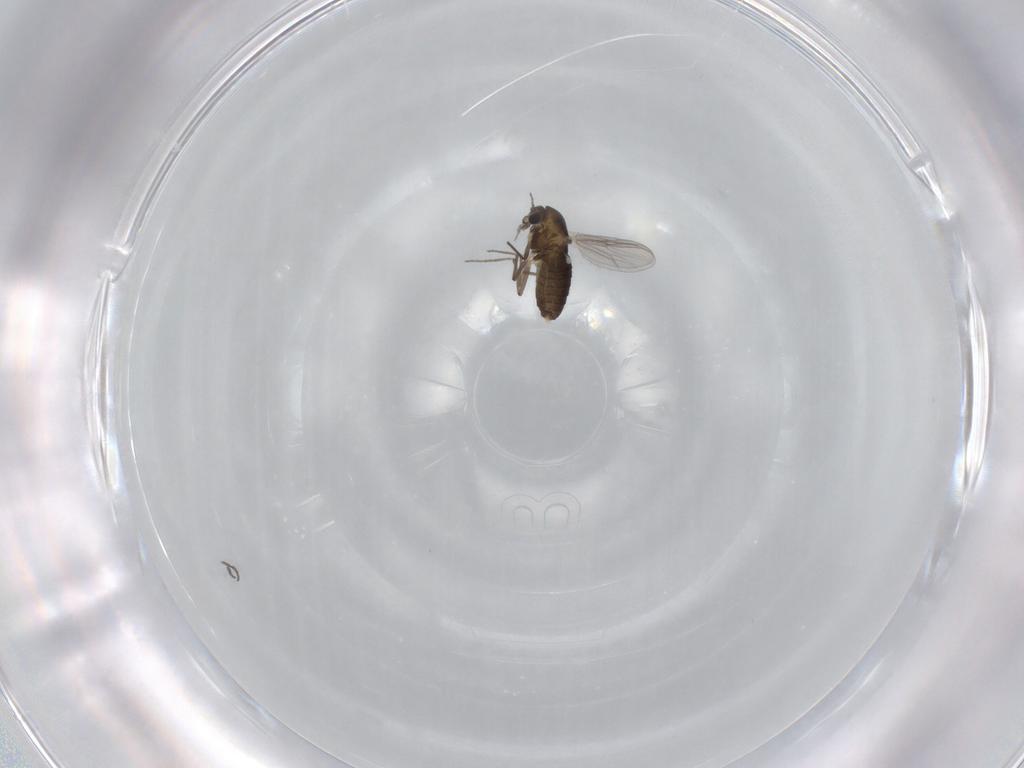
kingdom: Animalia
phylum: Arthropoda
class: Insecta
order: Diptera
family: Chironomidae
